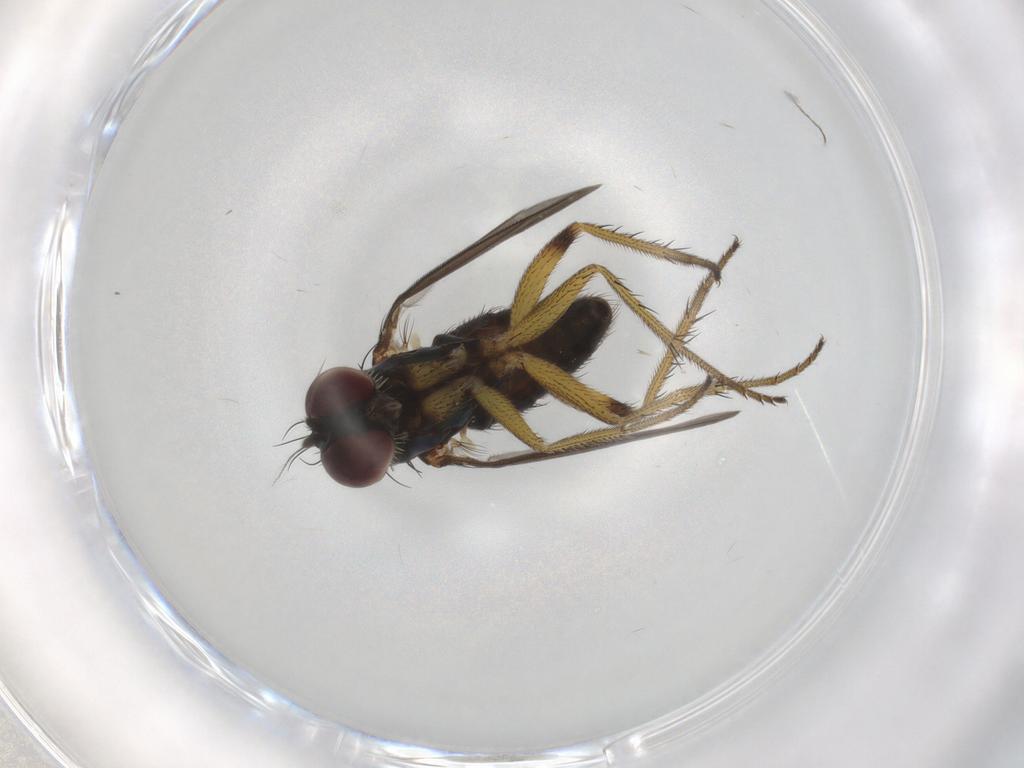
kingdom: Animalia
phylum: Arthropoda
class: Insecta
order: Diptera
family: Dolichopodidae
